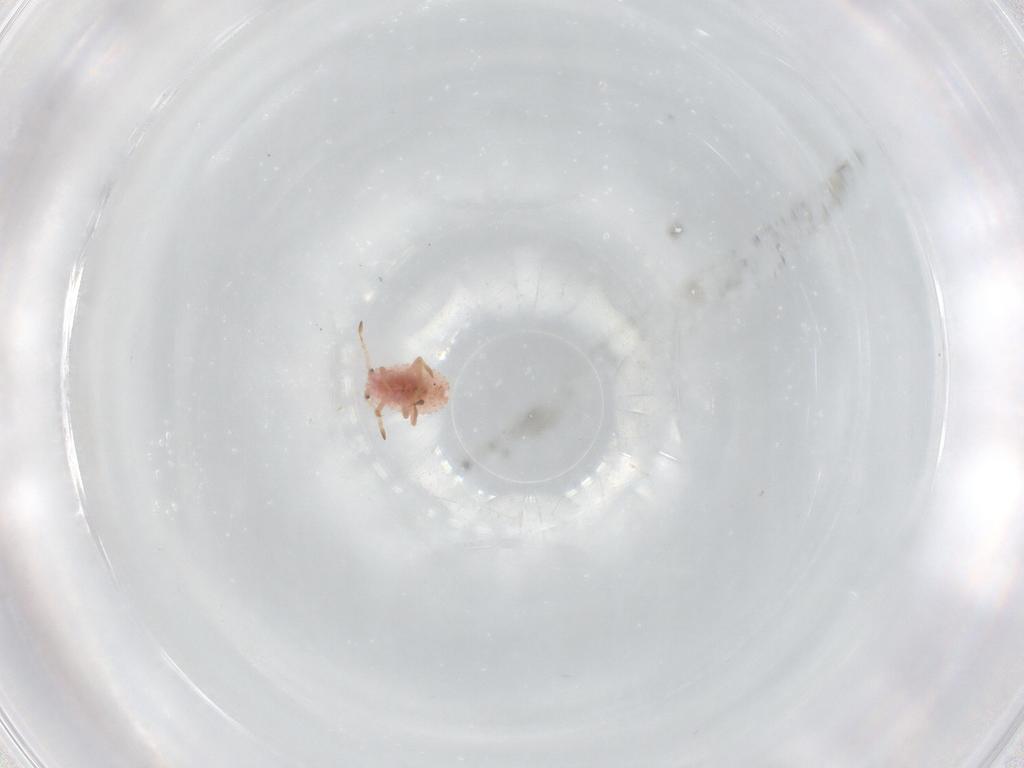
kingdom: Animalia
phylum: Arthropoda
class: Insecta
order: Hemiptera
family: Coccoidea_incertae_sedis
